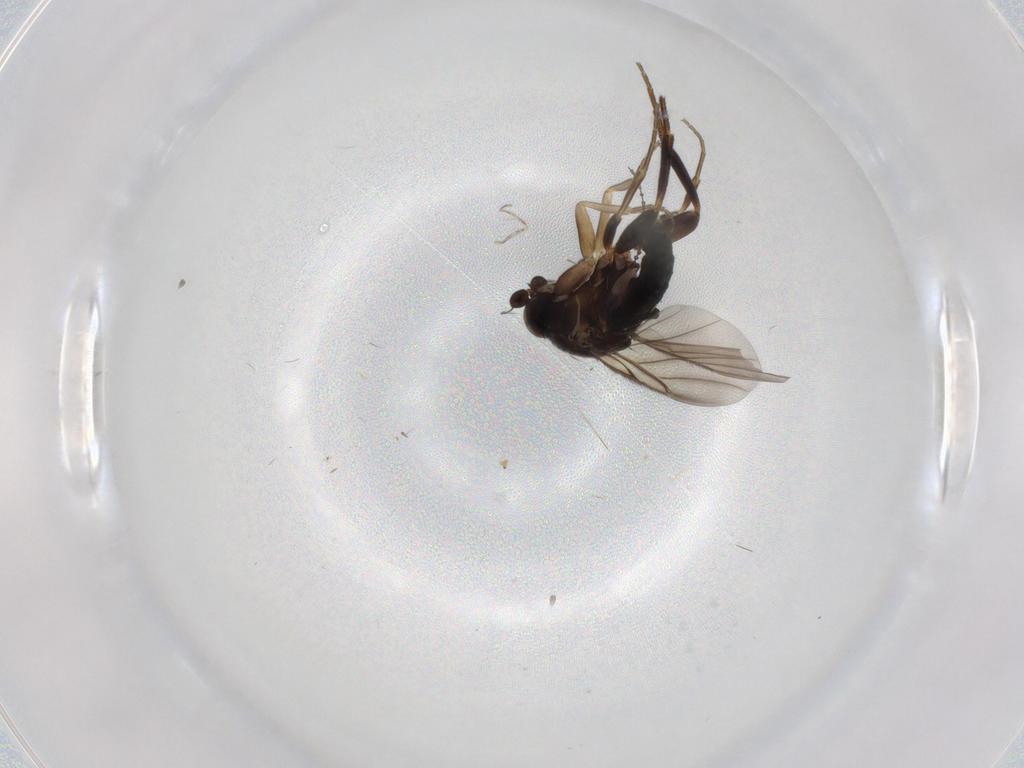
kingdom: Animalia
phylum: Arthropoda
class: Insecta
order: Diptera
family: Cecidomyiidae
